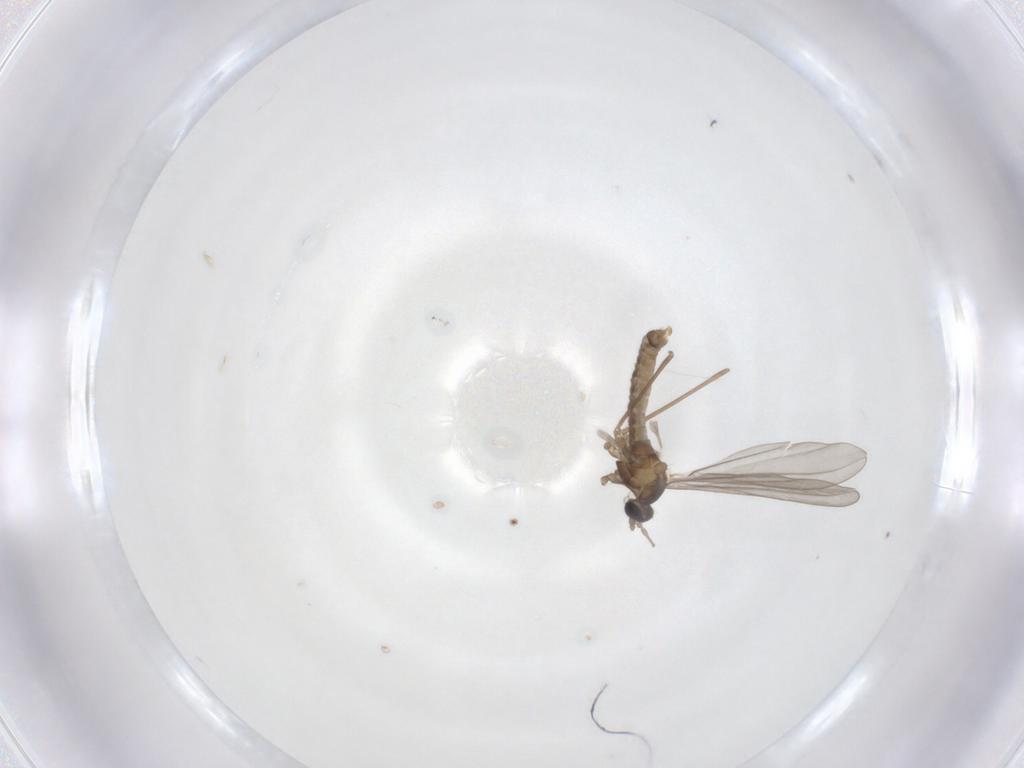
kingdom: Animalia
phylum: Arthropoda
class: Insecta
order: Diptera
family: Cecidomyiidae
